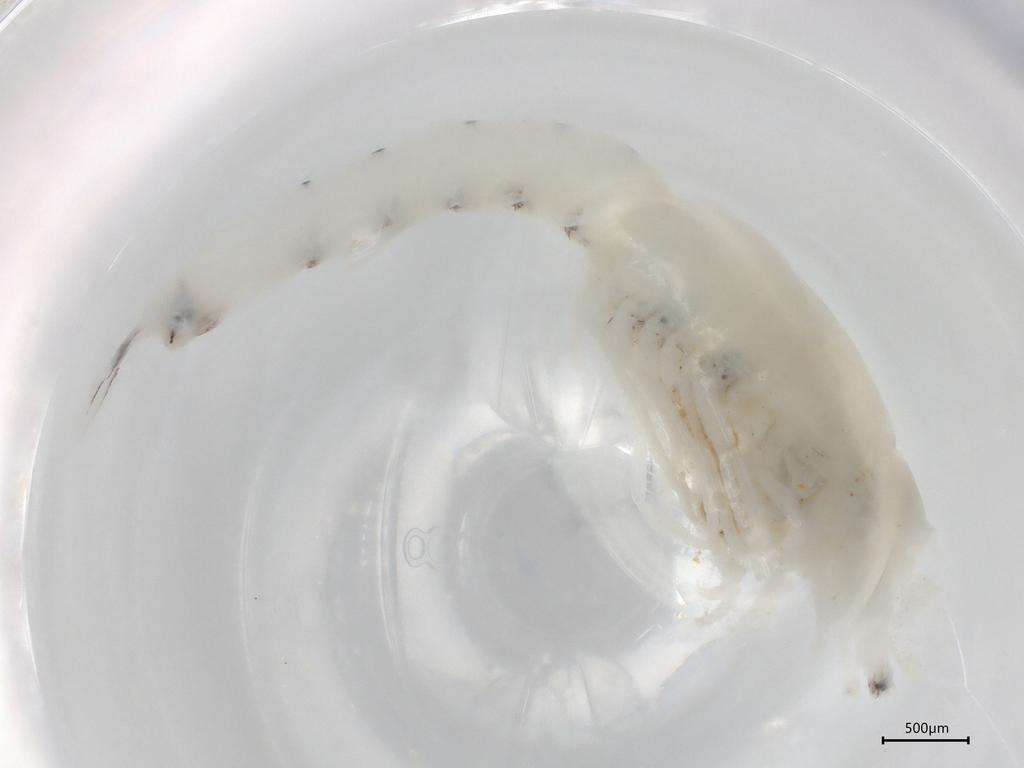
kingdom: Animalia
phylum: Arthropoda
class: Malacostraca
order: Mysida
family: Mysidae
